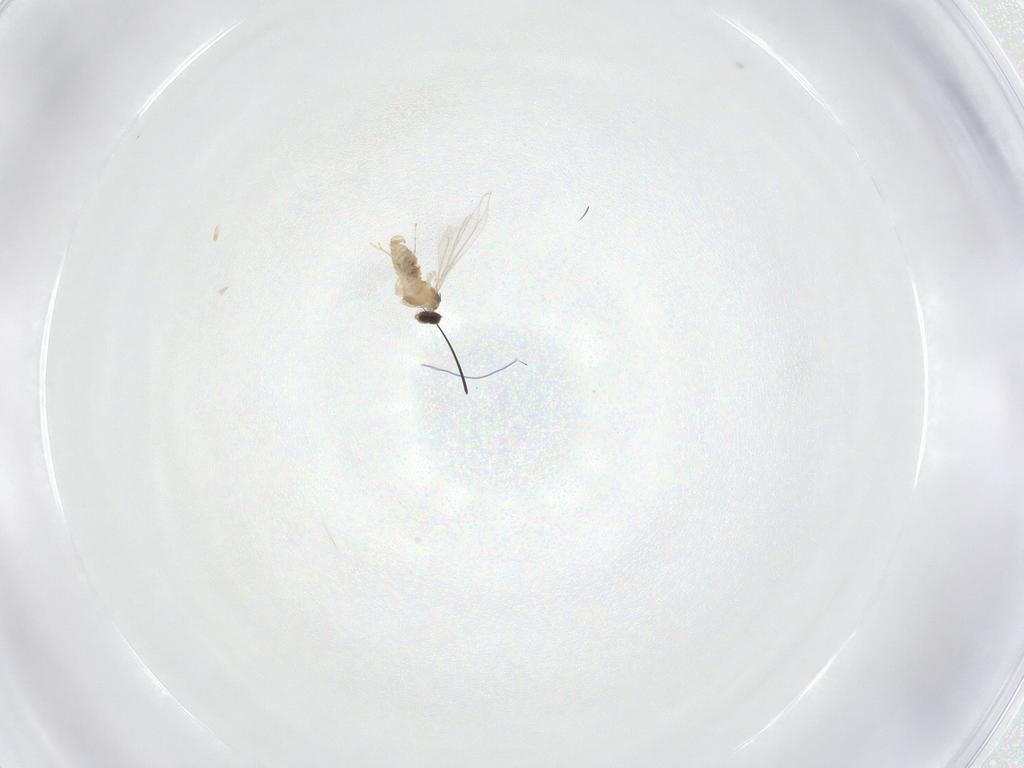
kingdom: Animalia
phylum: Arthropoda
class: Insecta
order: Diptera
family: Cecidomyiidae
